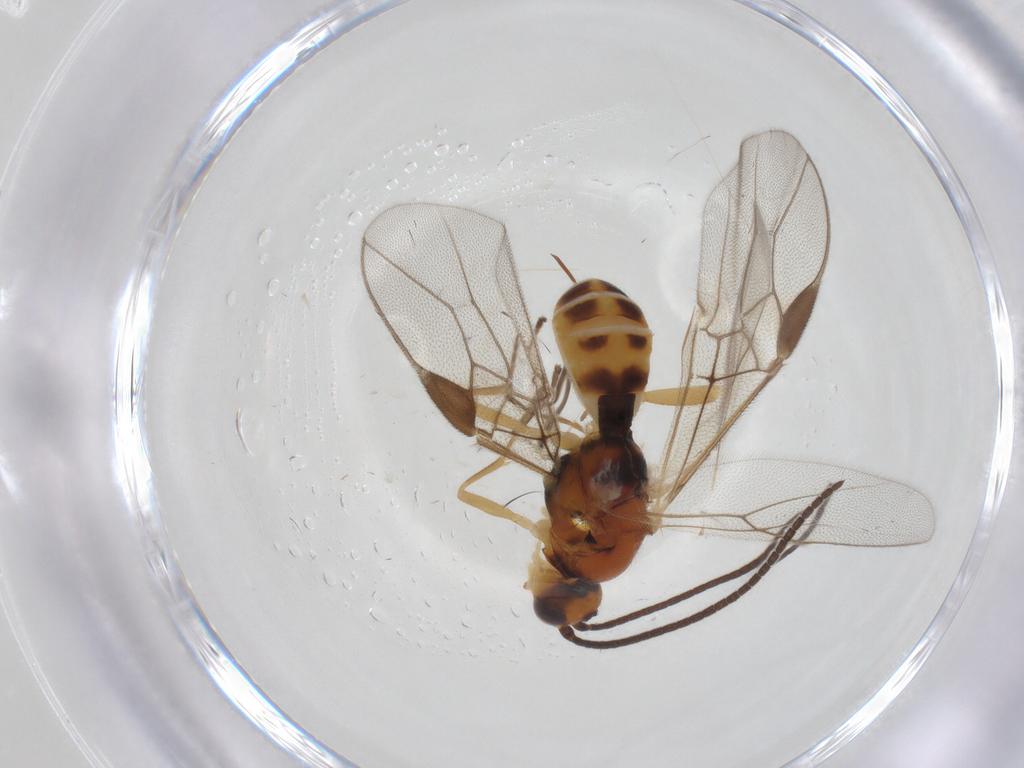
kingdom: Animalia
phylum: Arthropoda
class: Insecta
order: Hymenoptera
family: Braconidae
